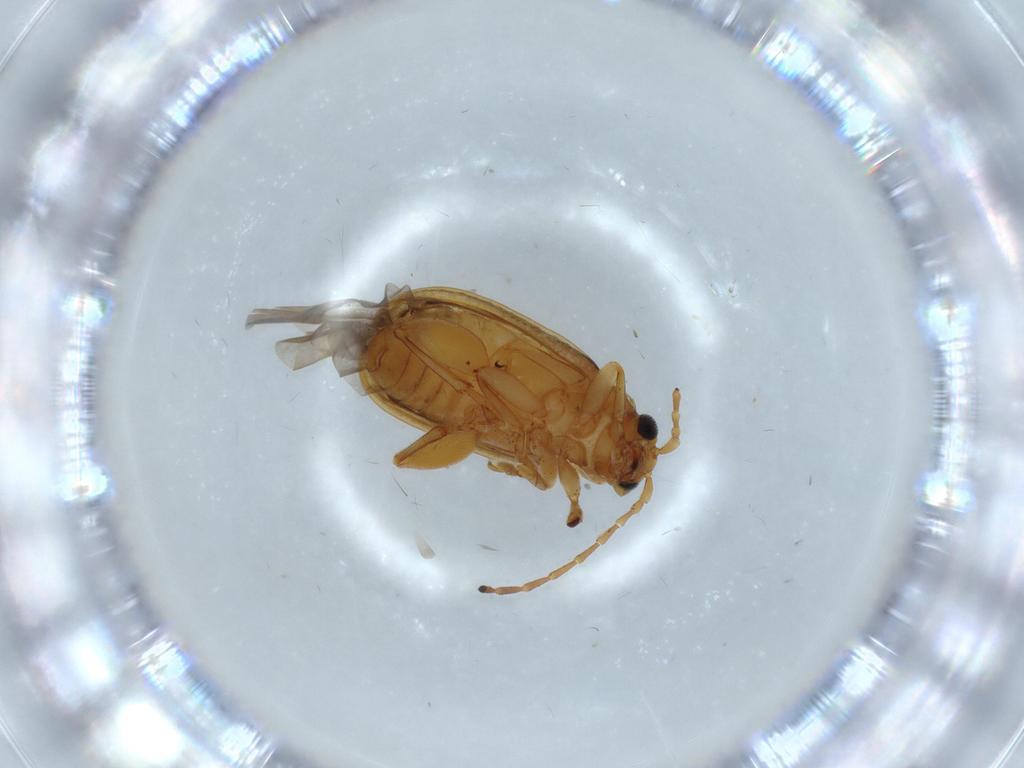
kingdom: Animalia
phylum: Arthropoda
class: Insecta
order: Coleoptera
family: Chrysomelidae
